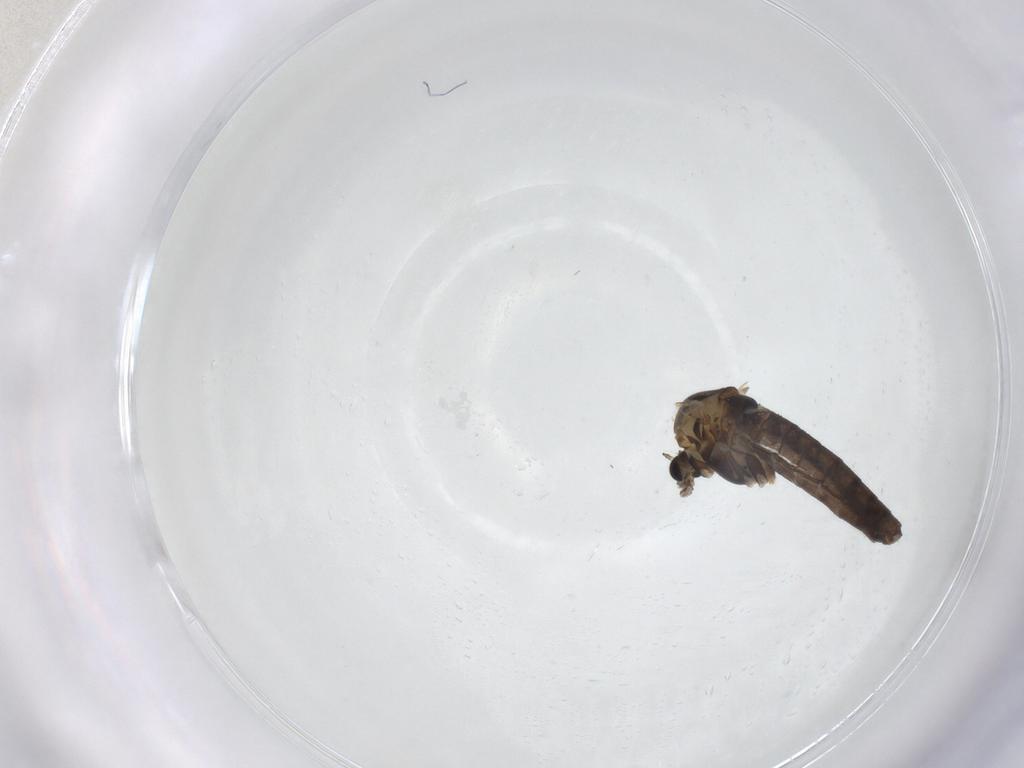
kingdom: Animalia
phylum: Arthropoda
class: Insecta
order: Diptera
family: Chironomidae
